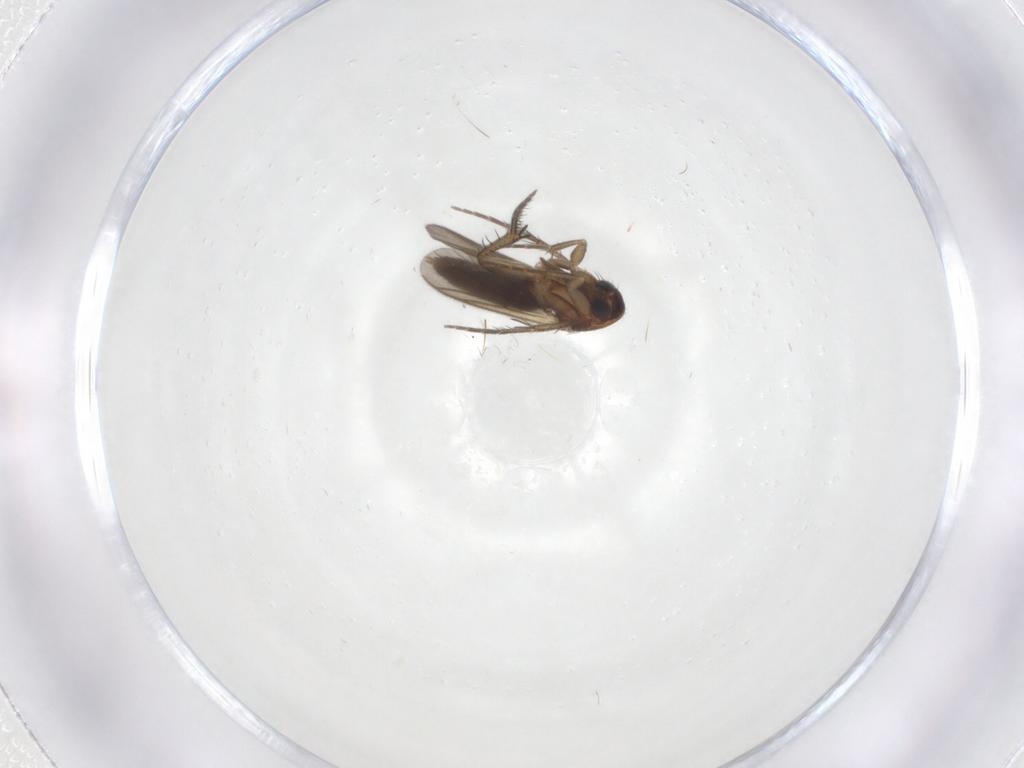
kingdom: Animalia
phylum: Arthropoda
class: Insecta
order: Diptera
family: Mycetophilidae
